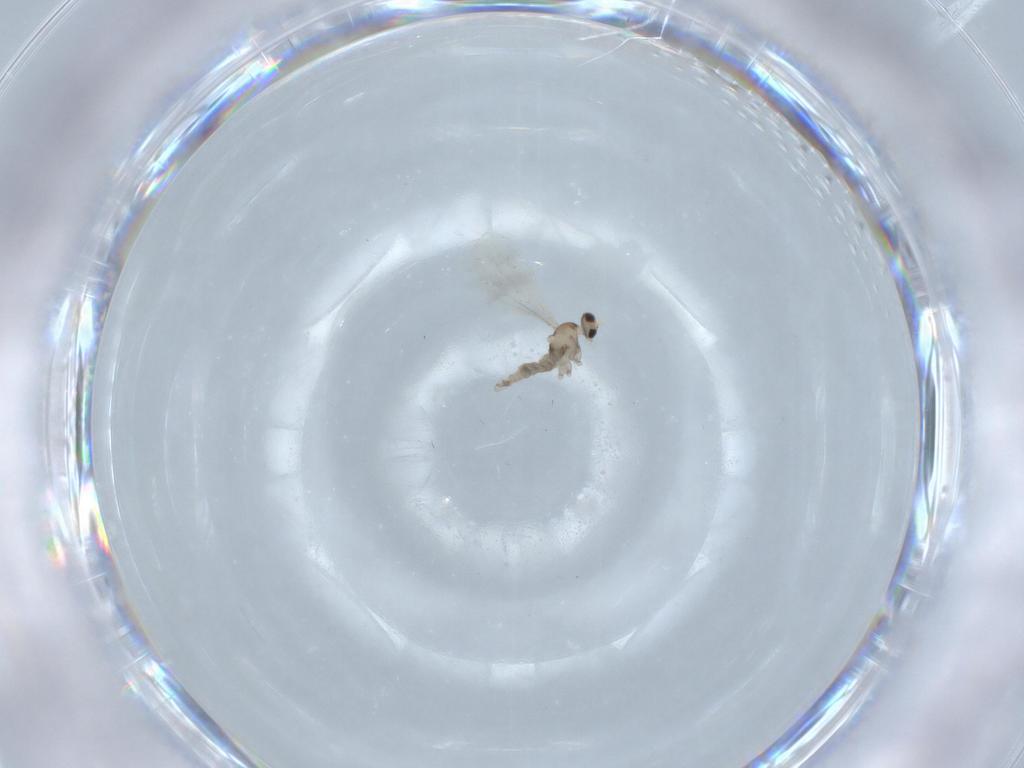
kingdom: Animalia
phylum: Arthropoda
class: Insecta
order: Diptera
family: Cecidomyiidae
